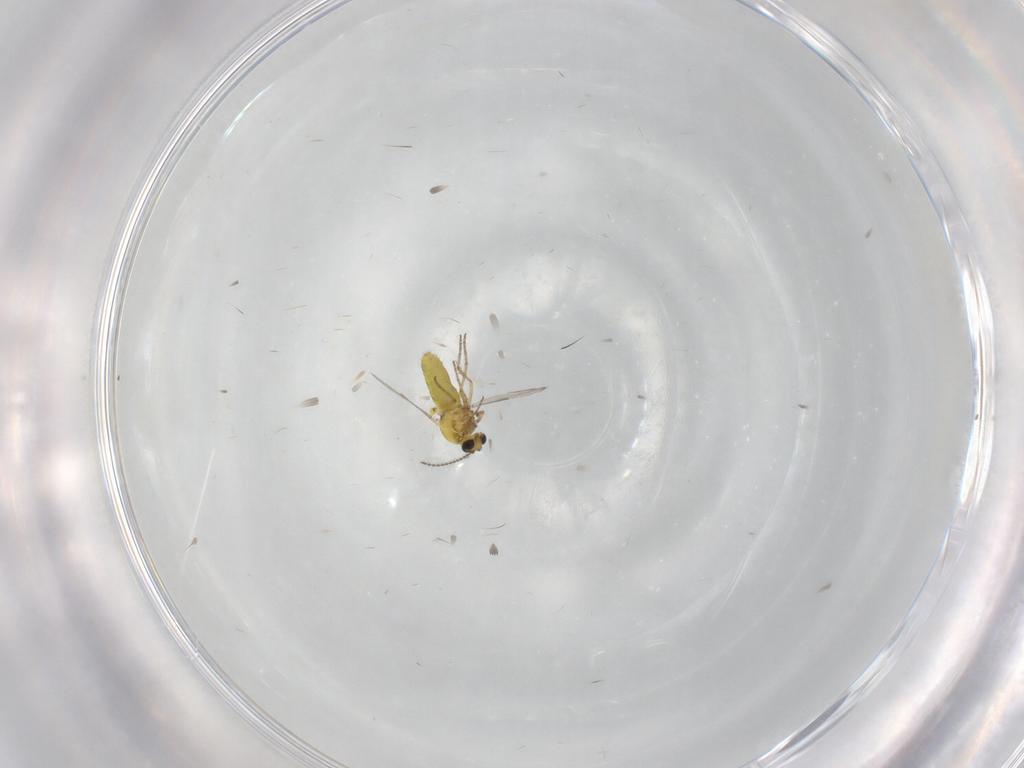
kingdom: Animalia
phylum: Arthropoda
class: Insecta
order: Diptera
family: Ceratopogonidae
